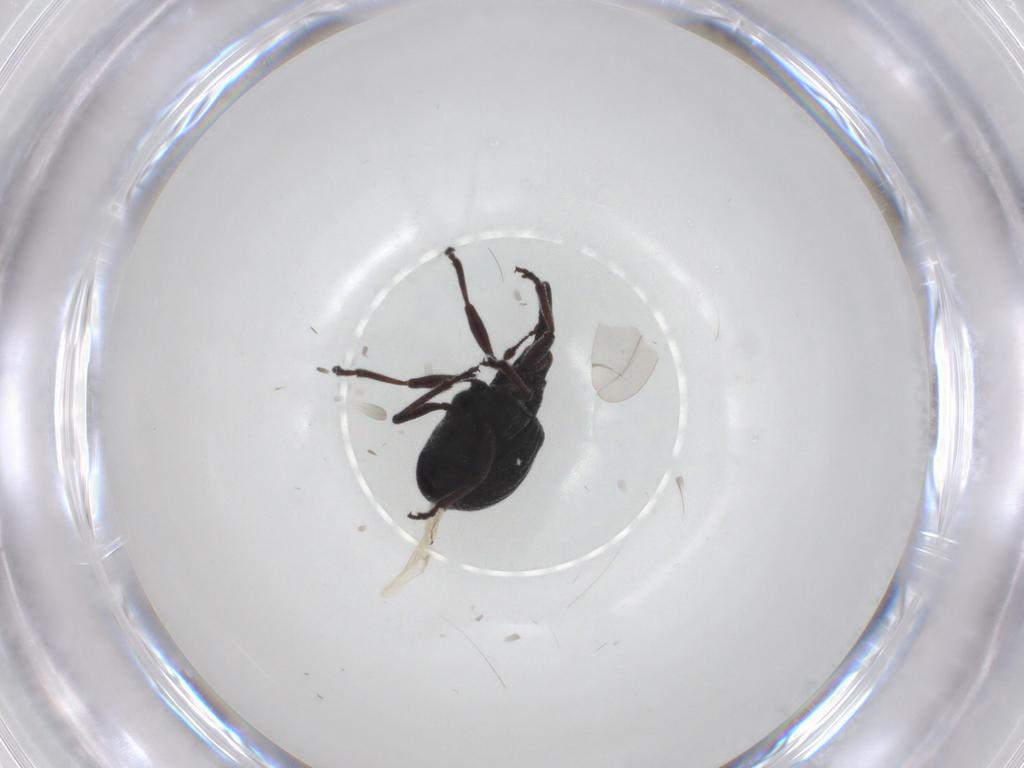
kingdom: Animalia
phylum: Arthropoda
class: Insecta
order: Coleoptera
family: Brentidae
